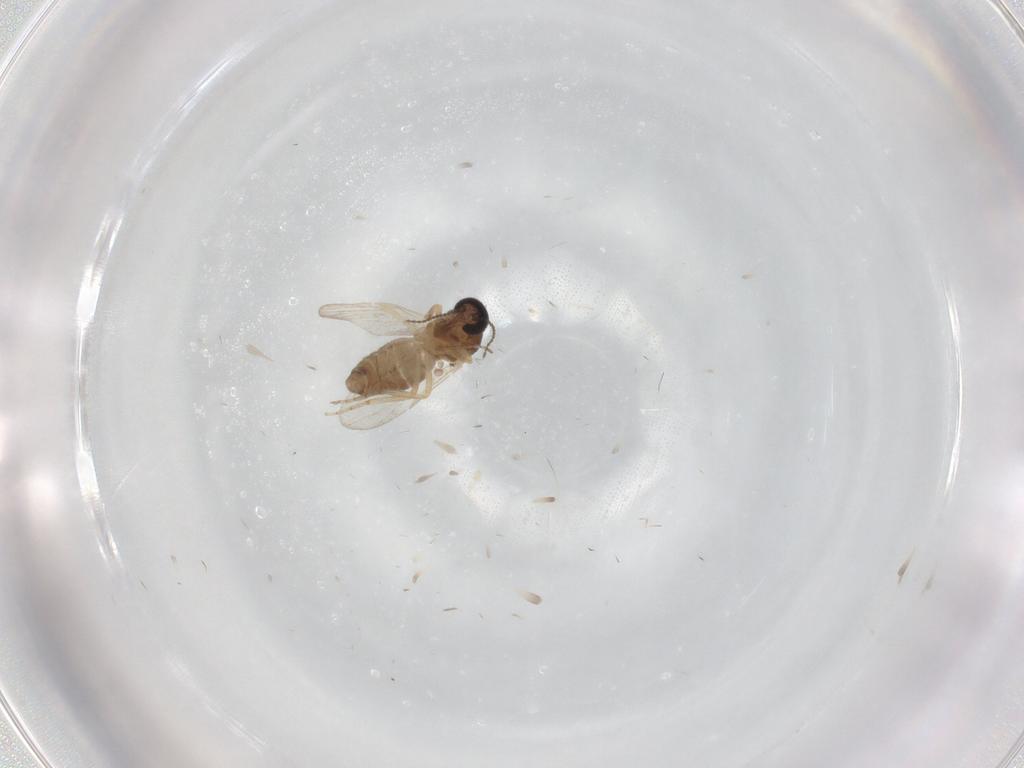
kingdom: Animalia
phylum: Arthropoda
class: Insecta
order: Diptera
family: Ceratopogonidae
